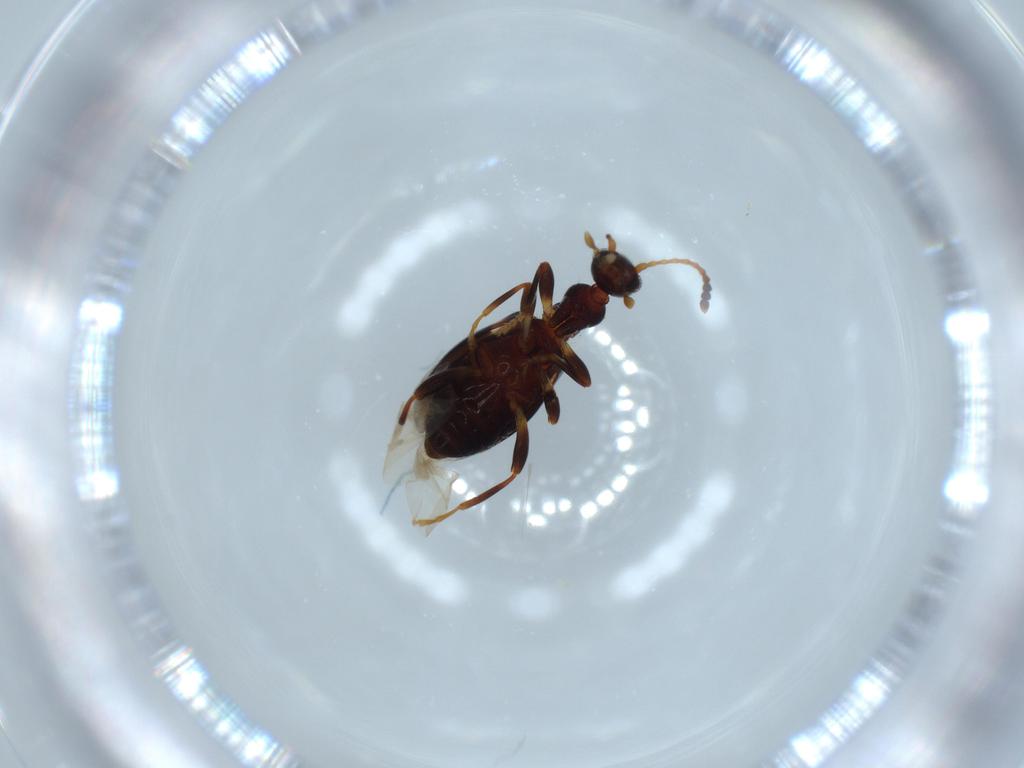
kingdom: Animalia
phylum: Arthropoda
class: Insecta
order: Coleoptera
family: Anthicidae
